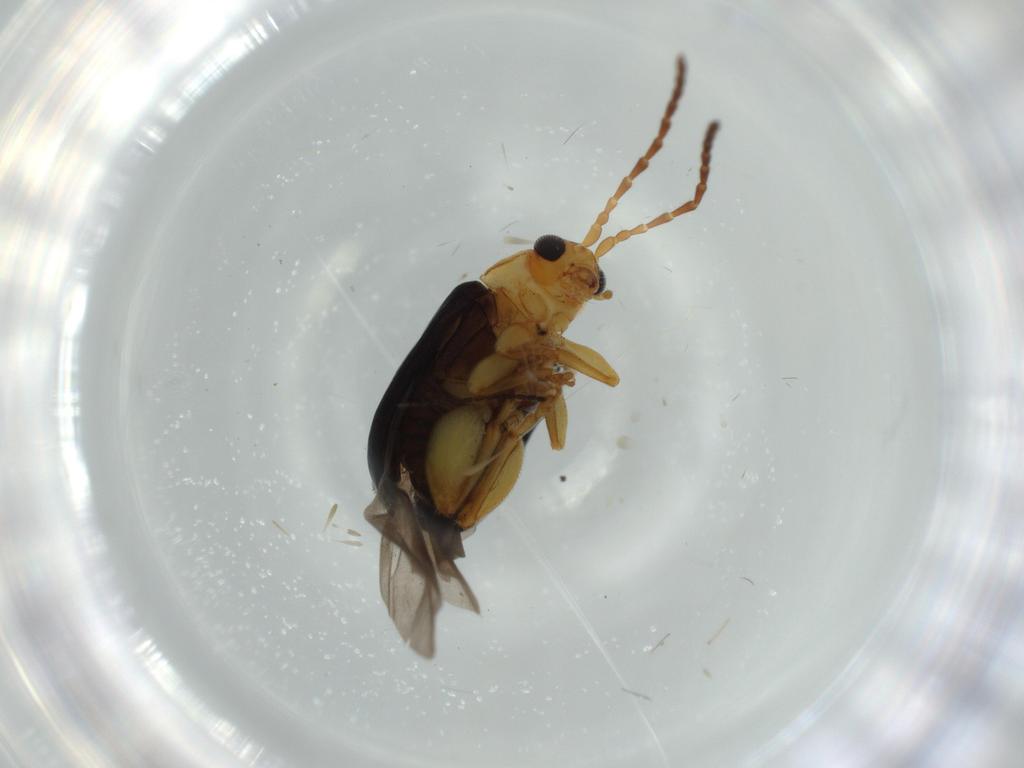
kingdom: Animalia
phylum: Arthropoda
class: Insecta
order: Coleoptera
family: Chrysomelidae
